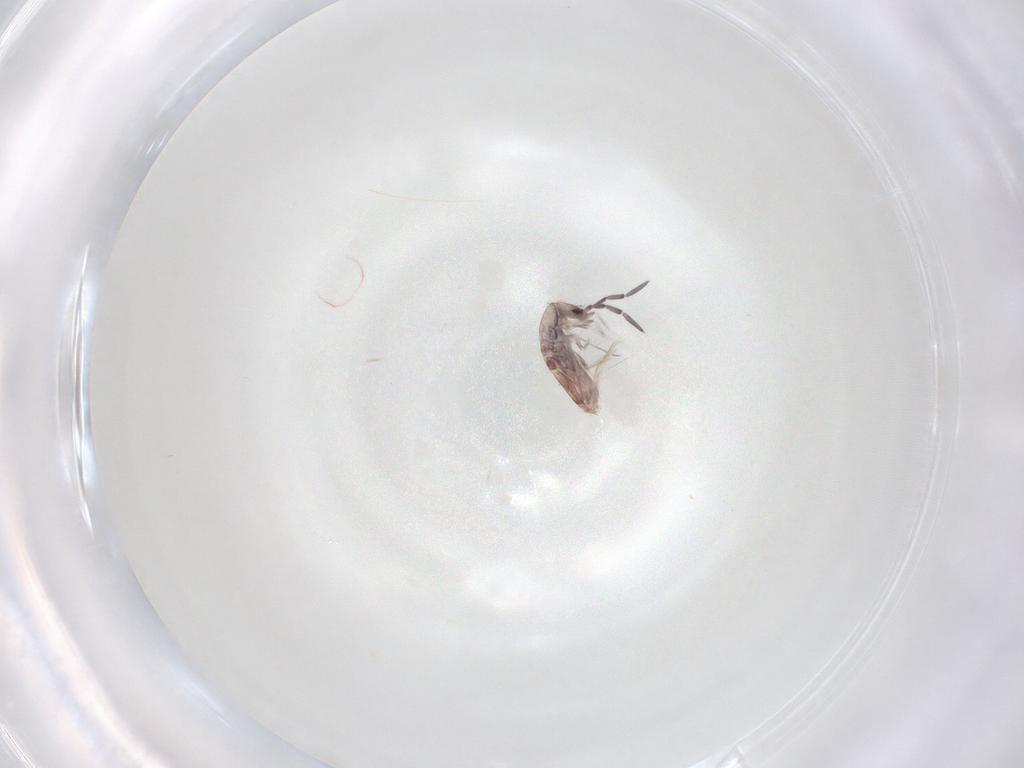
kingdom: Animalia
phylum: Arthropoda
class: Collembola
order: Poduromorpha
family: Hypogastruridae
